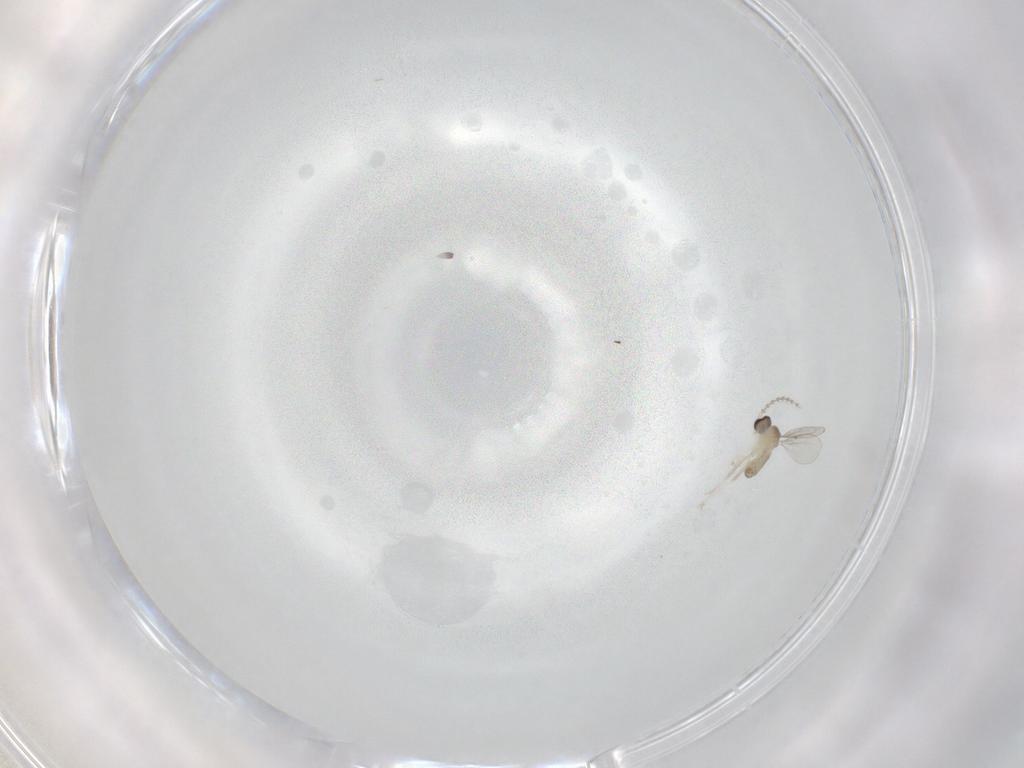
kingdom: Animalia
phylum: Arthropoda
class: Insecta
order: Diptera
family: Cecidomyiidae
